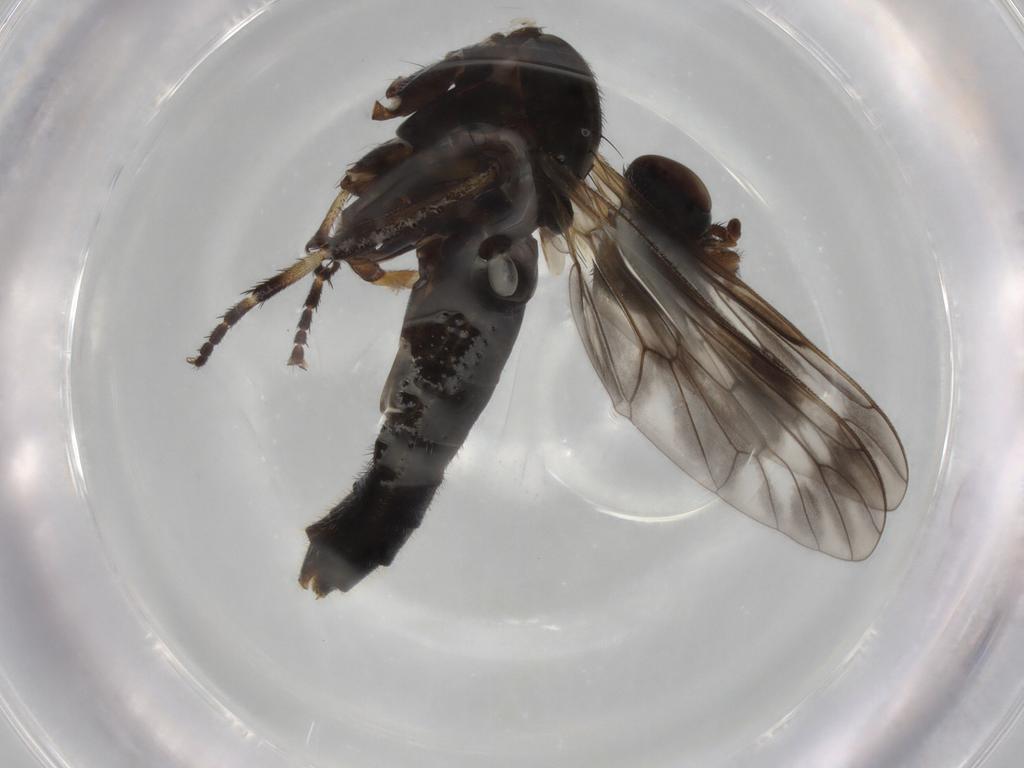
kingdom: Animalia
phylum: Arthropoda
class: Insecta
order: Diptera
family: Therevidae
